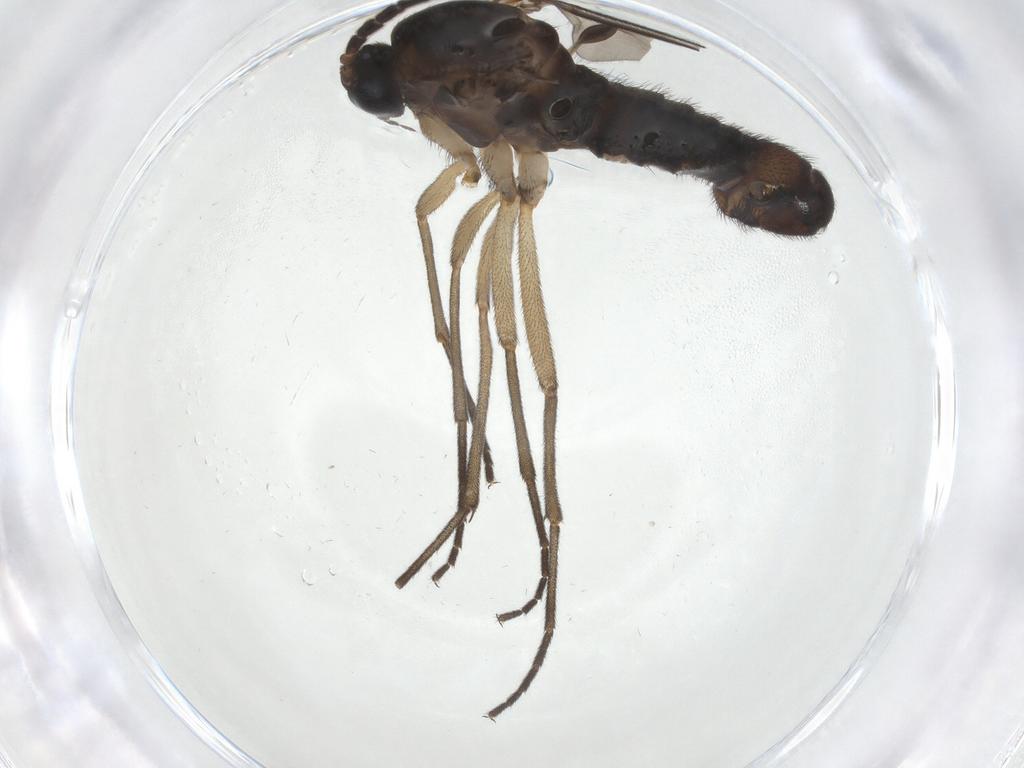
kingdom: Animalia
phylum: Arthropoda
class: Insecta
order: Diptera
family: Sciaridae
